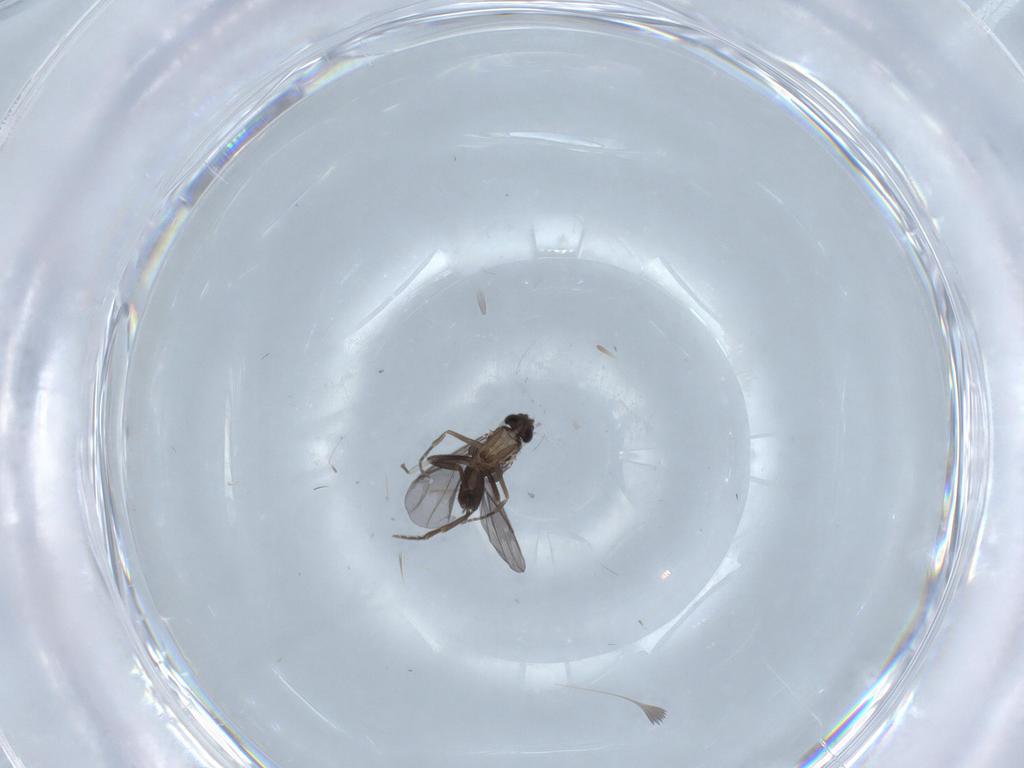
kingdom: Animalia
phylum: Arthropoda
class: Insecta
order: Diptera
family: Chironomidae
